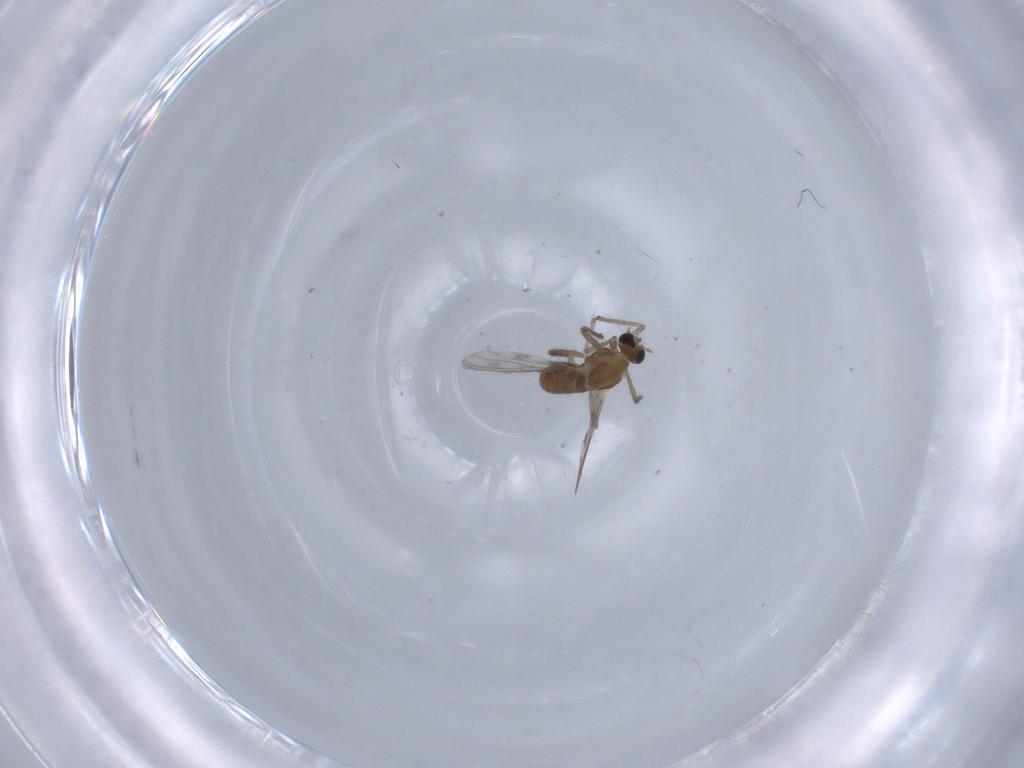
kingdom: Animalia
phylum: Arthropoda
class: Insecta
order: Diptera
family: Chironomidae
